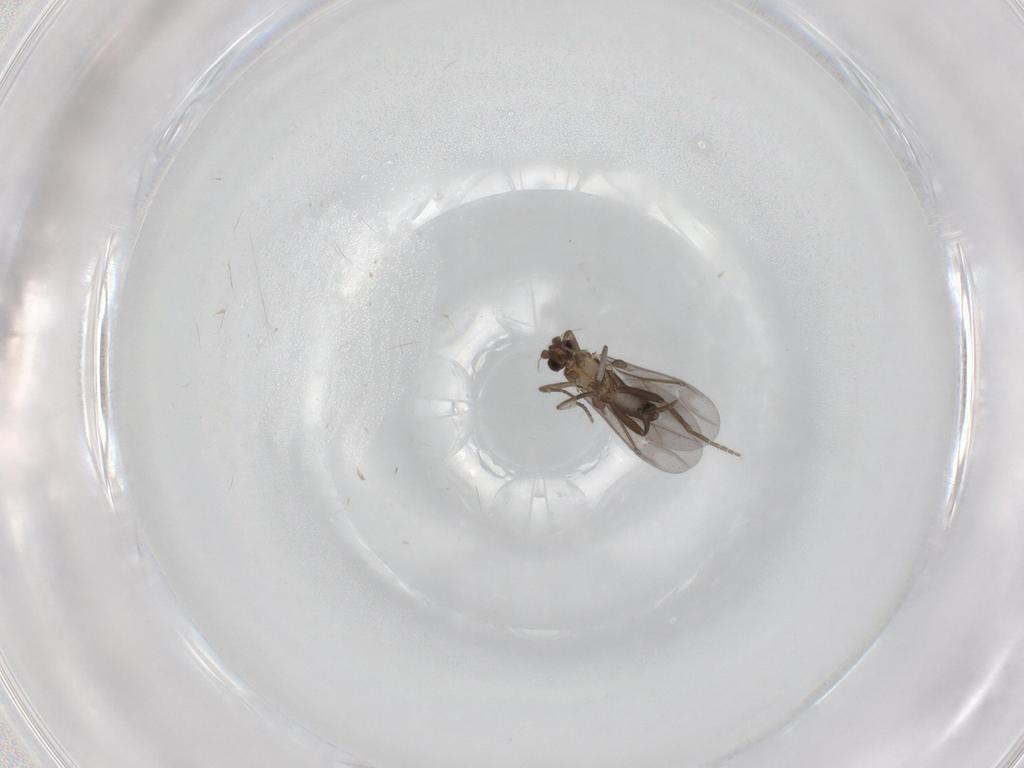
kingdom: Animalia
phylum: Arthropoda
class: Insecta
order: Diptera
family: Phoridae
